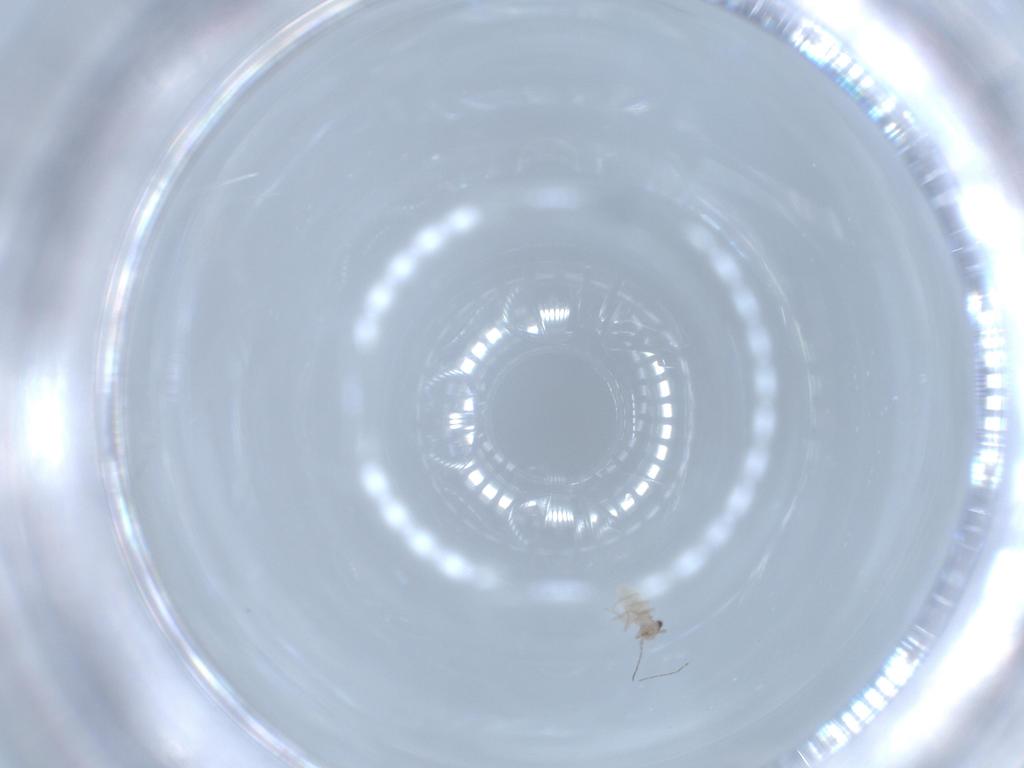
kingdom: Animalia
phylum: Arthropoda
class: Insecta
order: Psocodea
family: Lepidopsocidae
